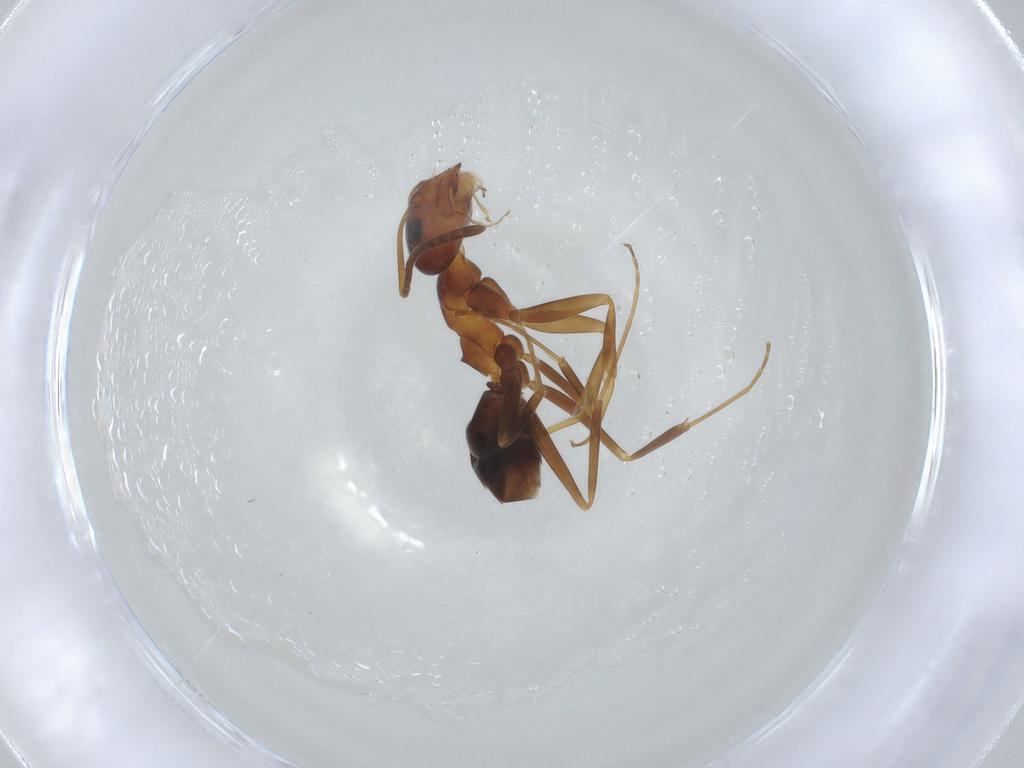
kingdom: Animalia
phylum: Arthropoda
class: Insecta
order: Hymenoptera
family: Formicidae
